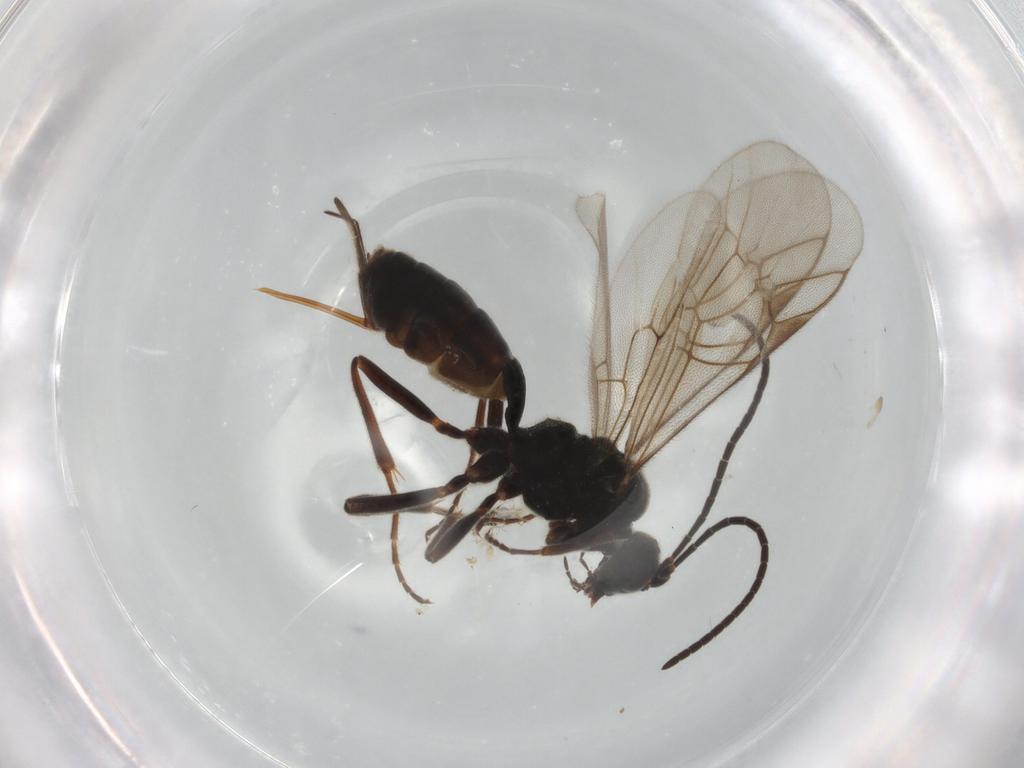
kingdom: Animalia
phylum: Arthropoda
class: Insecta
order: Hymenoptera
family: Ichneumonidae
